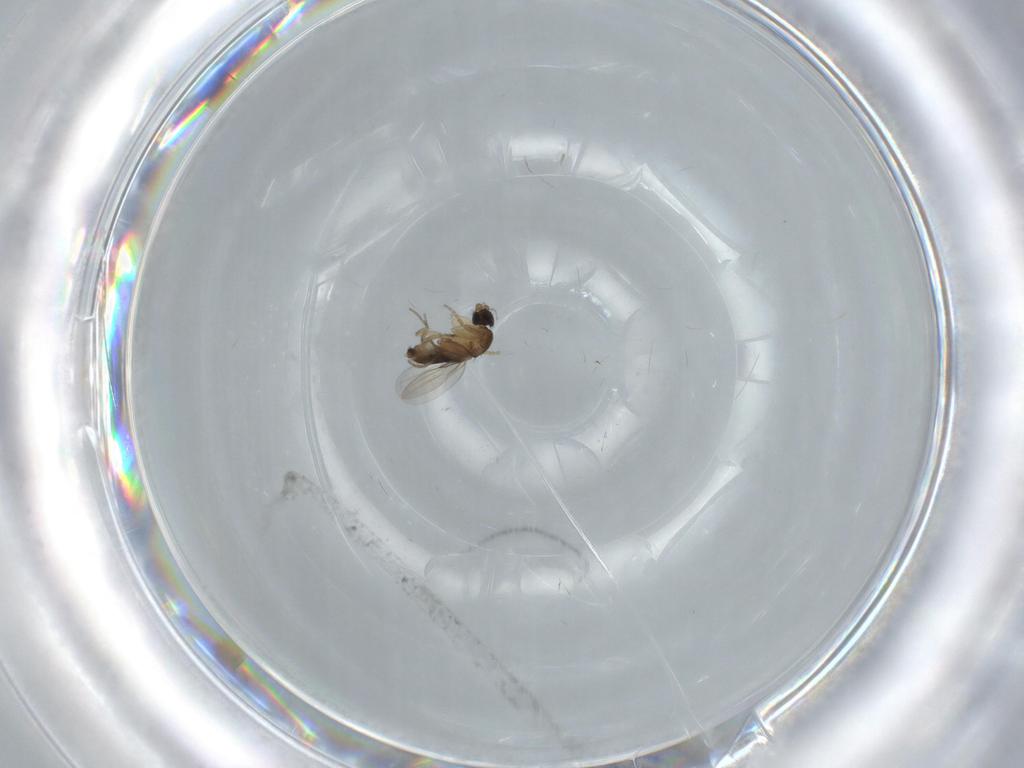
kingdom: Animalia
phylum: Arthropoda
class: Insecta
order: Diptera
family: Phoridae
